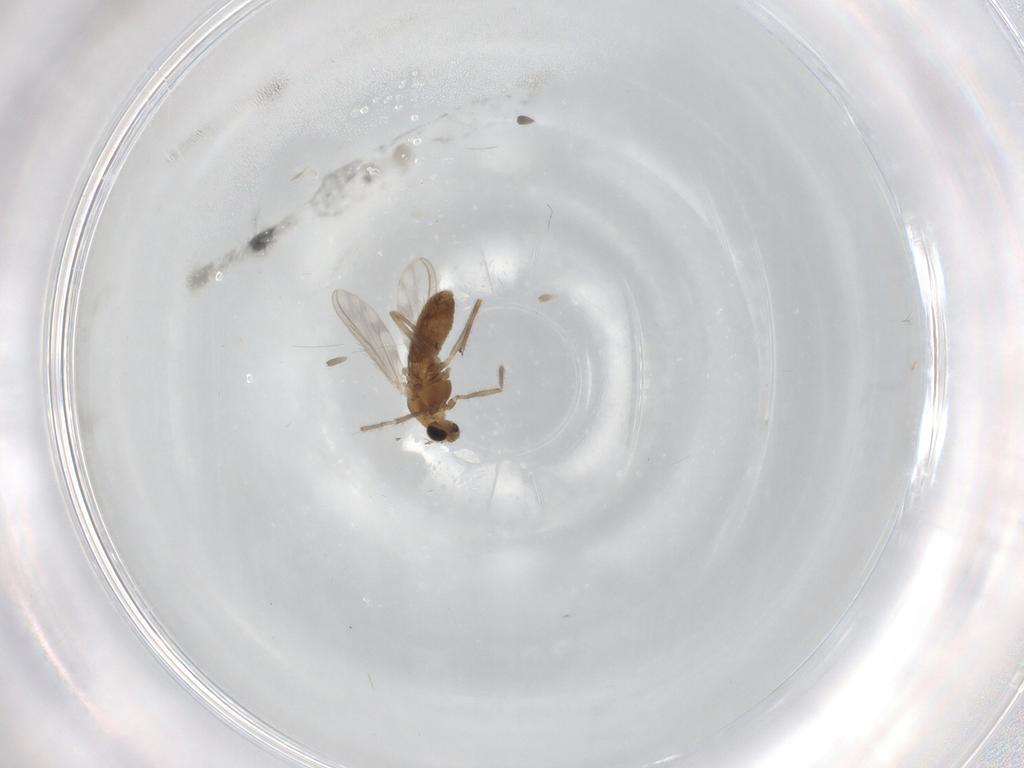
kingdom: Animalia
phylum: Arthropoda
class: Insecta
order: Diptera
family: Chironomidae
